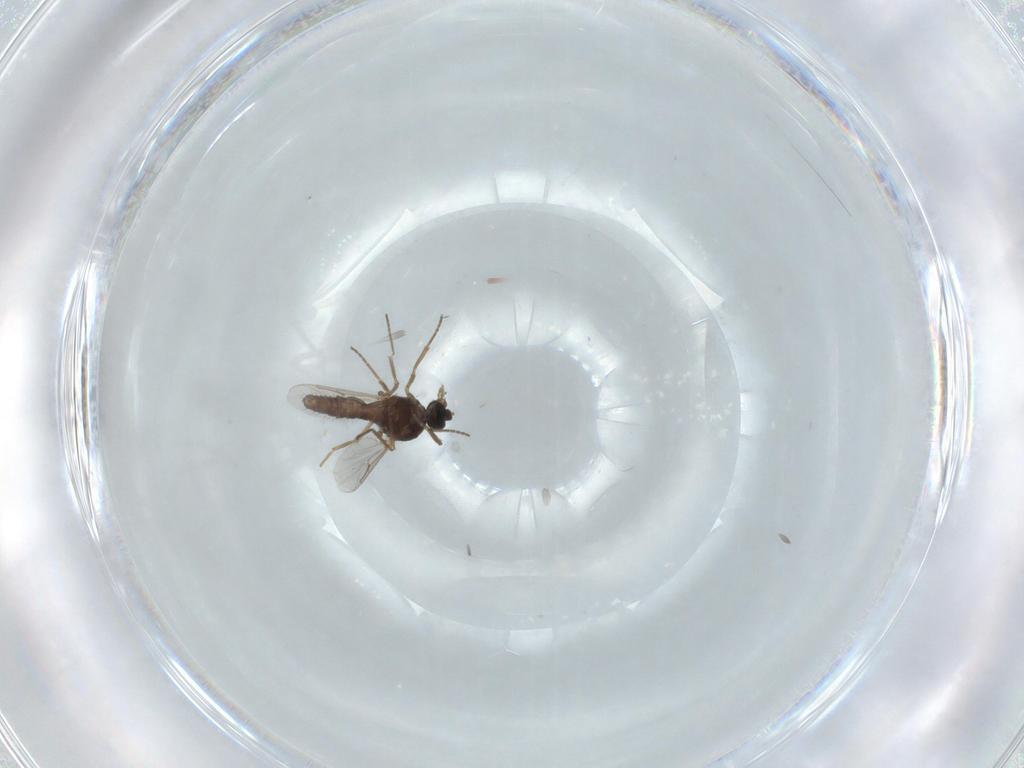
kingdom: Animalia
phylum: Arthropoda
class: Insecta
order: Diptera
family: Ceratopogonidae
